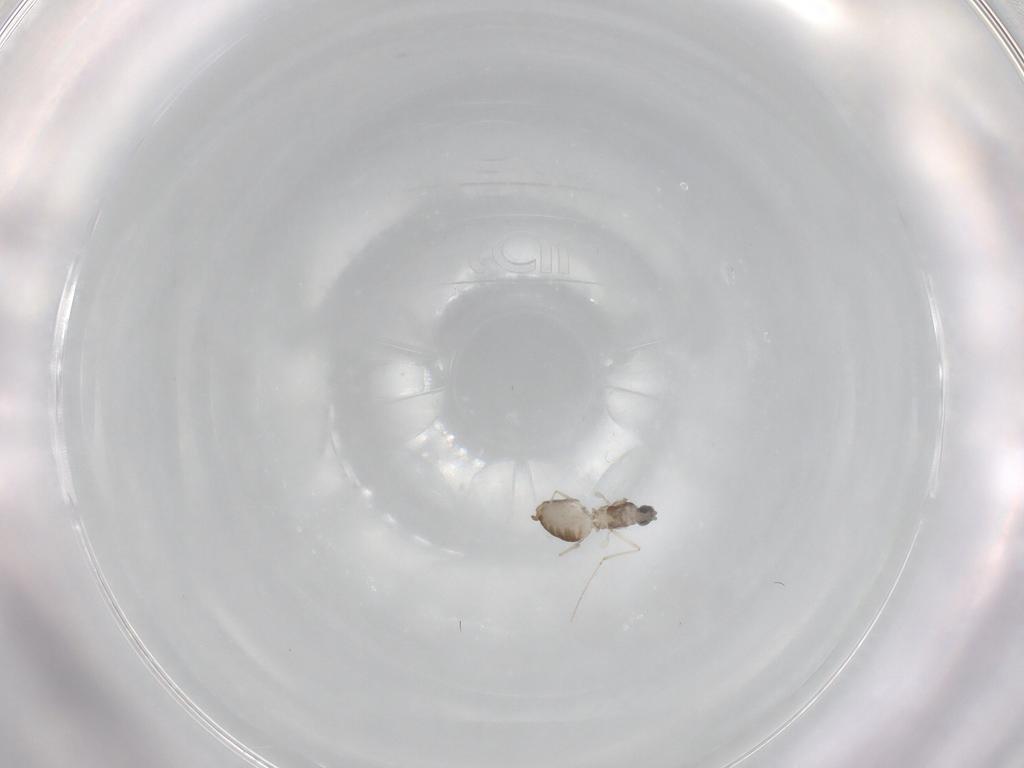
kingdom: Animalia
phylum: Arthropoda
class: Insecta
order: Diptera
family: Cecidomyiidae
